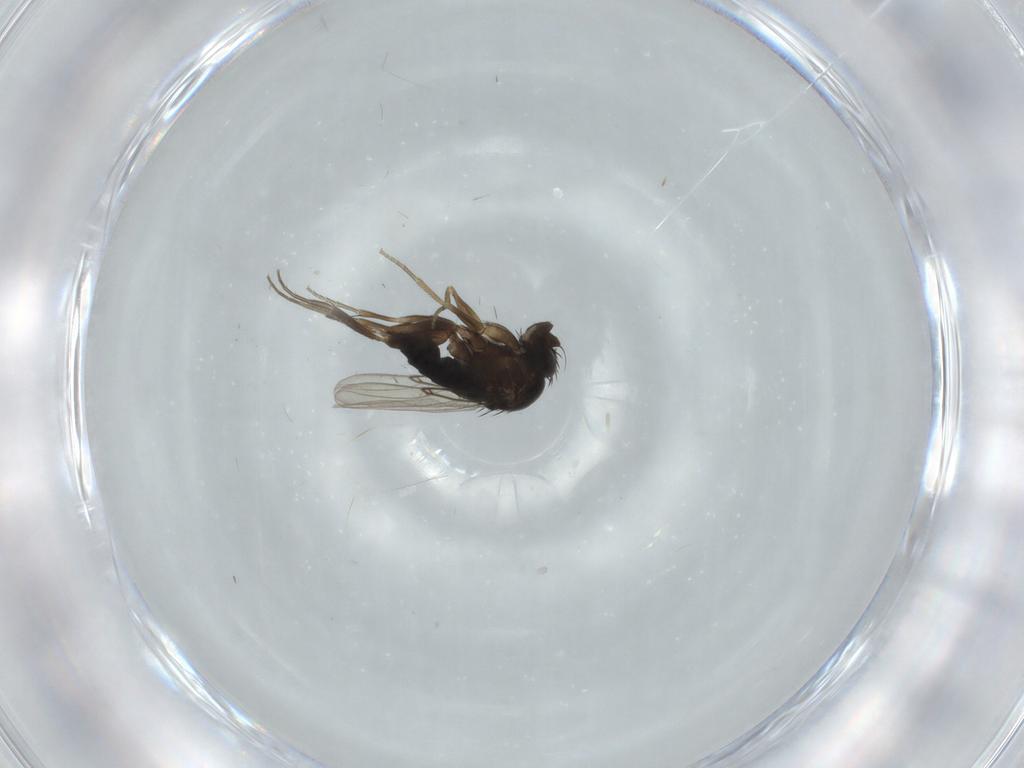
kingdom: Animalia
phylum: Arthropoda
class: Insecta
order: Diptera
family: Phoridae
